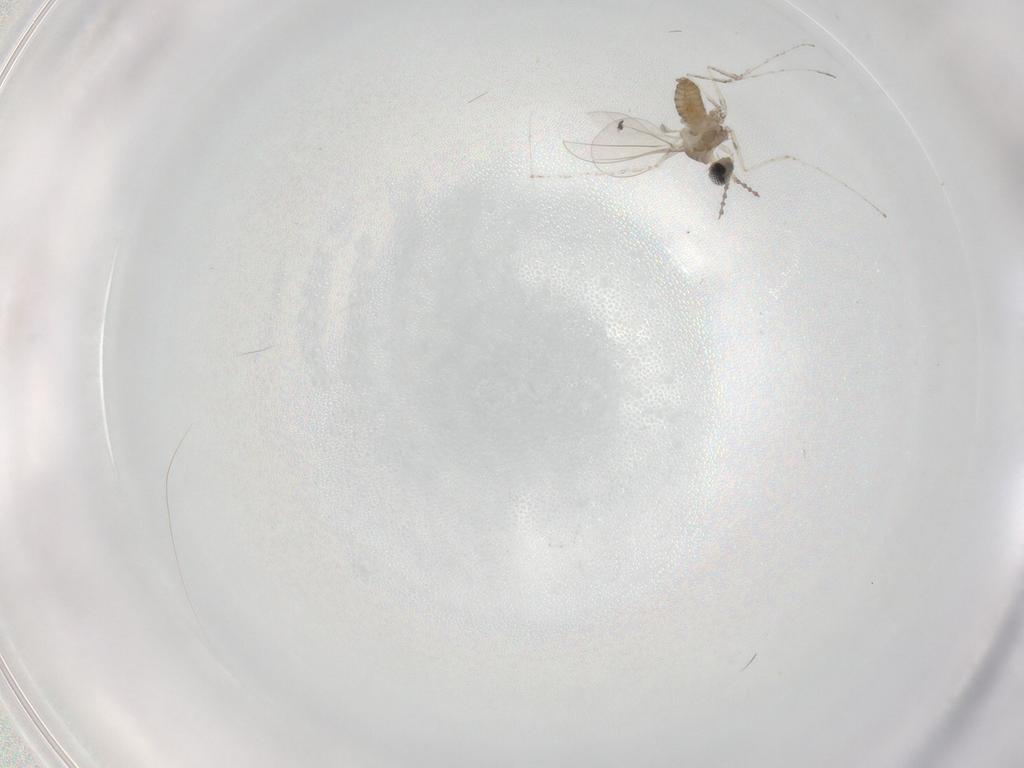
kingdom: Animalia
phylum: Arthropoda
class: Insecta
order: Diptera
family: Cecidomyiidae
